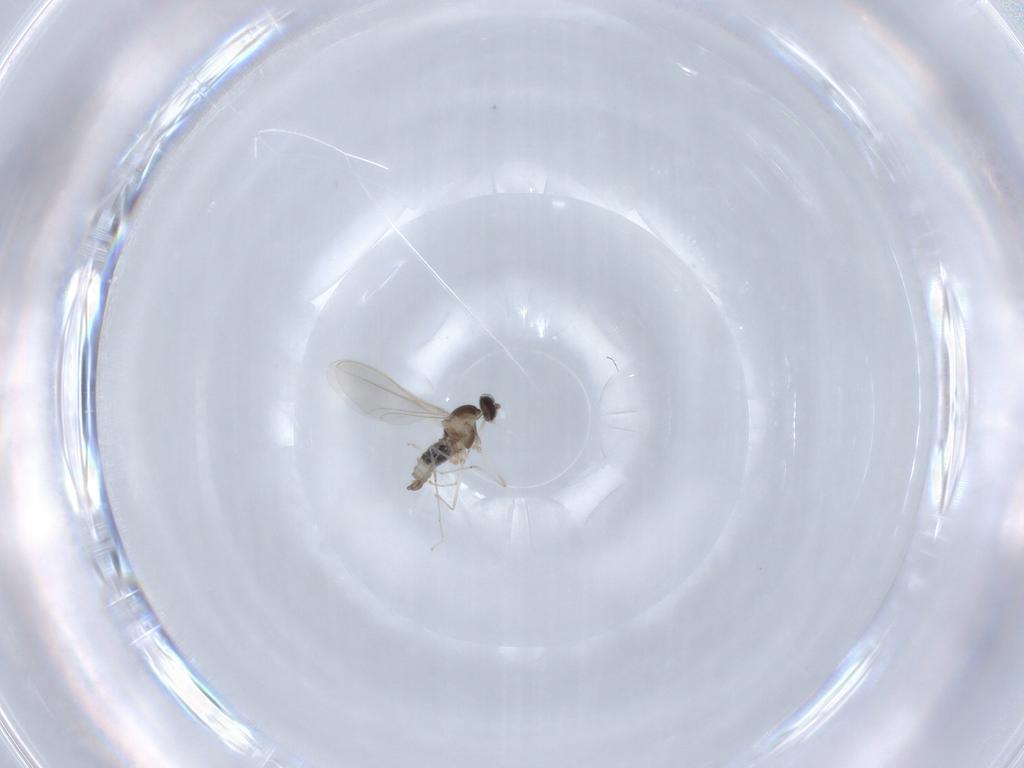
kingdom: Animalia
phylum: Arthropoda
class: Insecta
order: Diptera
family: Cecidomyiidae
